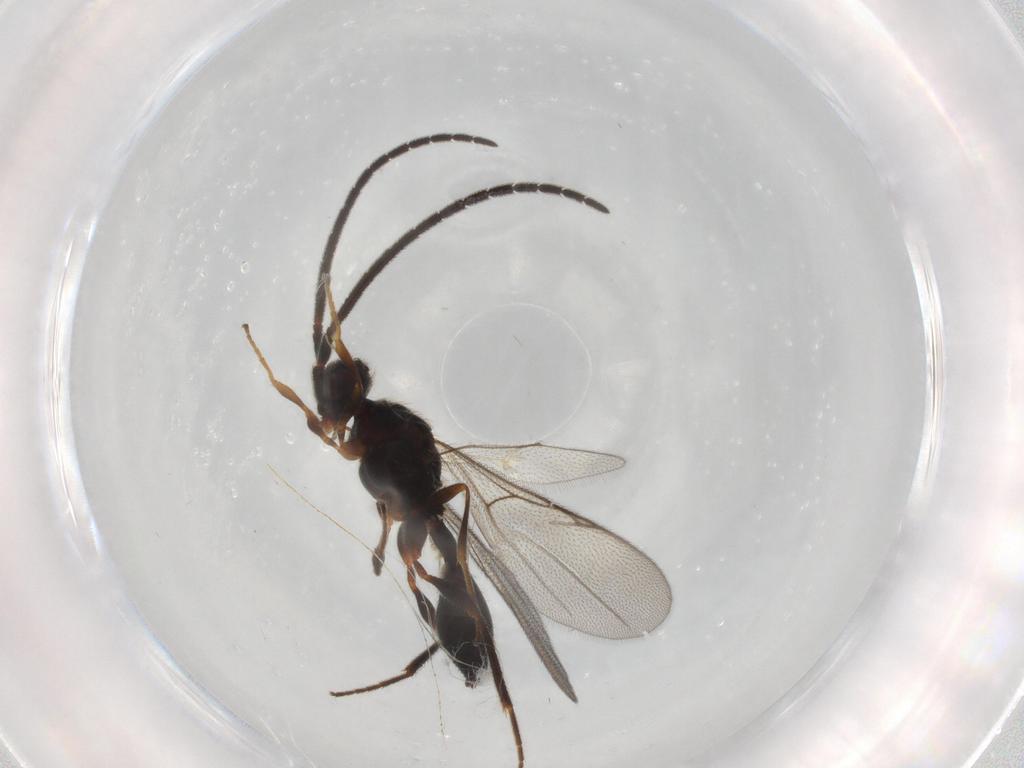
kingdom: Animalia
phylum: Arthropoda
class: Insecta
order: Hymenoptera
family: Diapriidae
